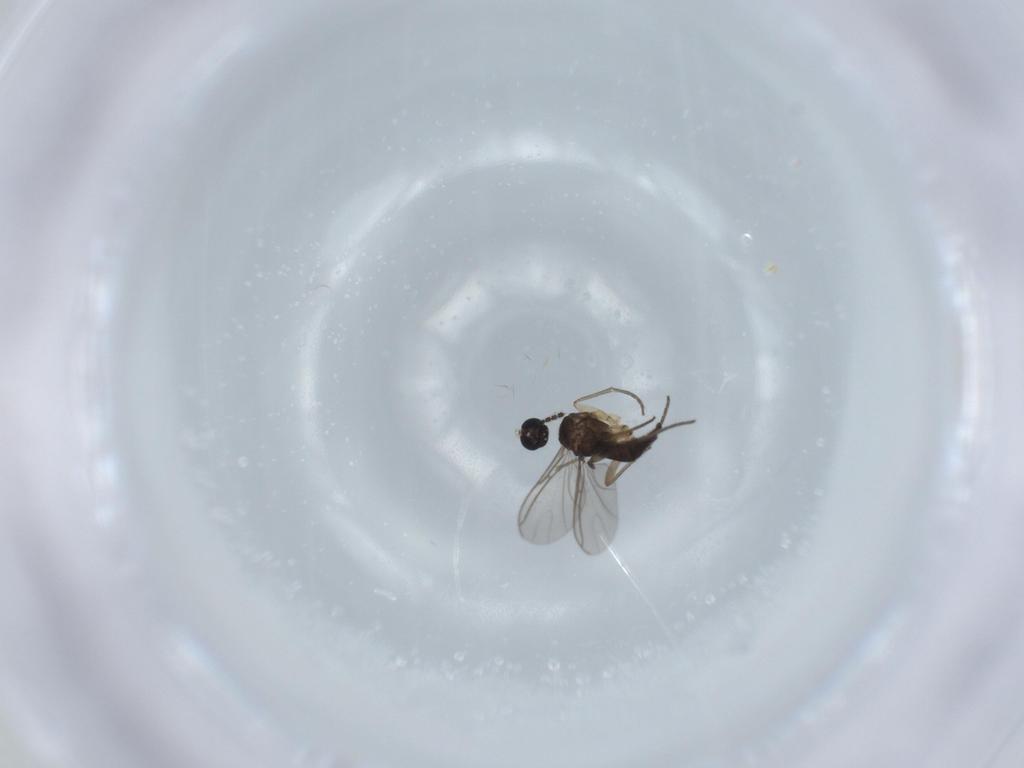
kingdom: Animalia
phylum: Arthropoda
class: Insecta
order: Diptera
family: Sciaridae
